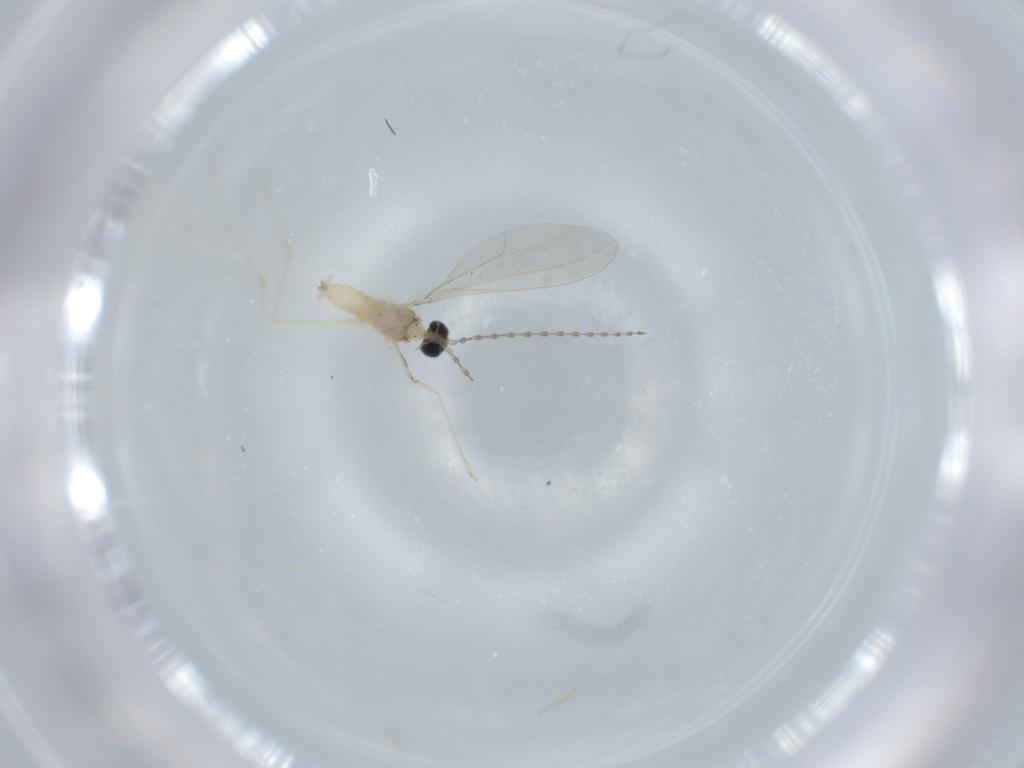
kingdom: Animalia
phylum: Arthropoda
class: Insecta
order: Diptera
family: Cecidomyiidae
